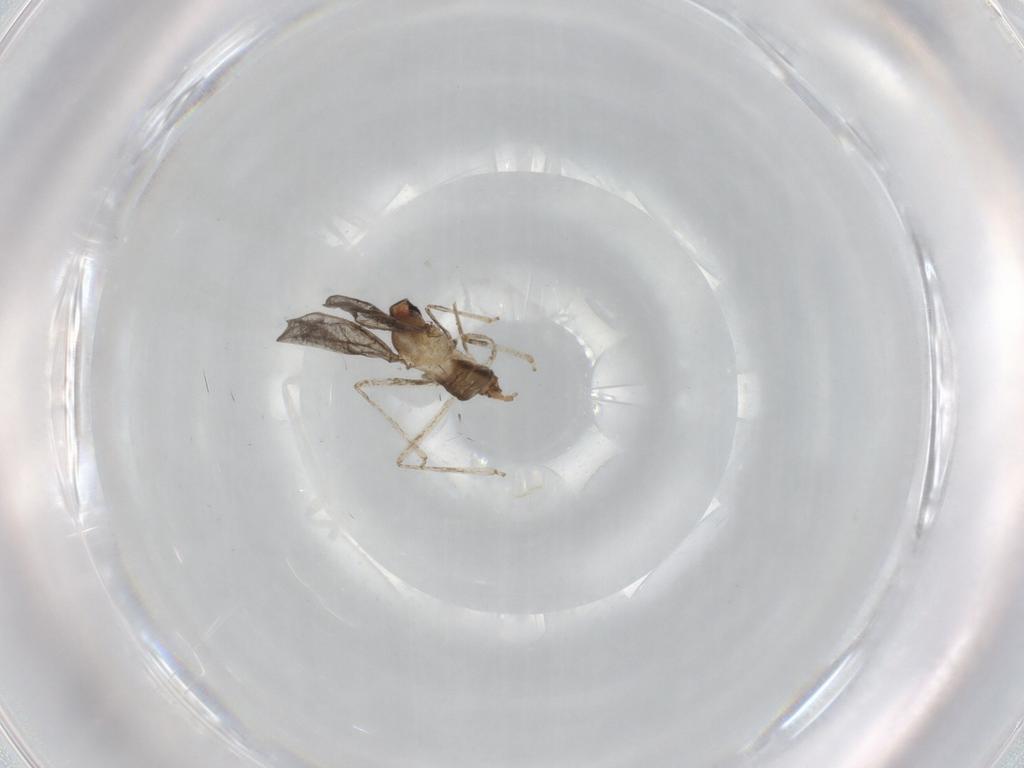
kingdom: Animalia
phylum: Arthropoda
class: Insecta
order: Diptera
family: Cecidomyiidae
